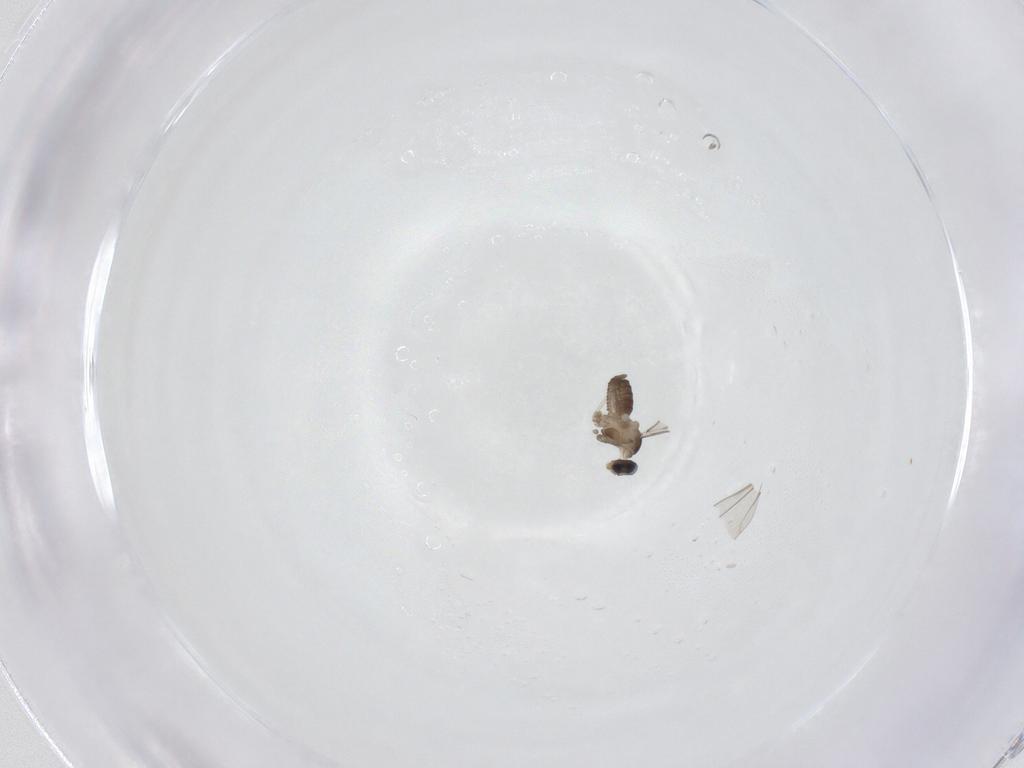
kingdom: Animalia
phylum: Arthropoda
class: Insecta
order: Diptera
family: Cecidomyiidae
